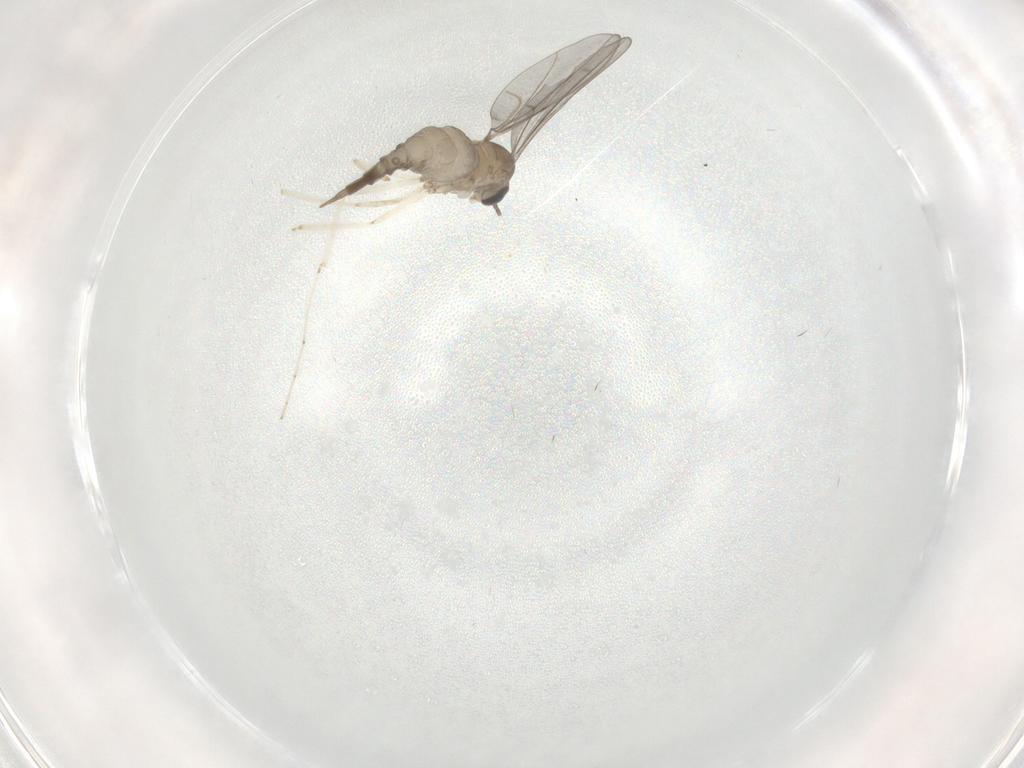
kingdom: Animalia
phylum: Arthropoda
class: Insecta
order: Diptera
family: Cecidomyiidae
